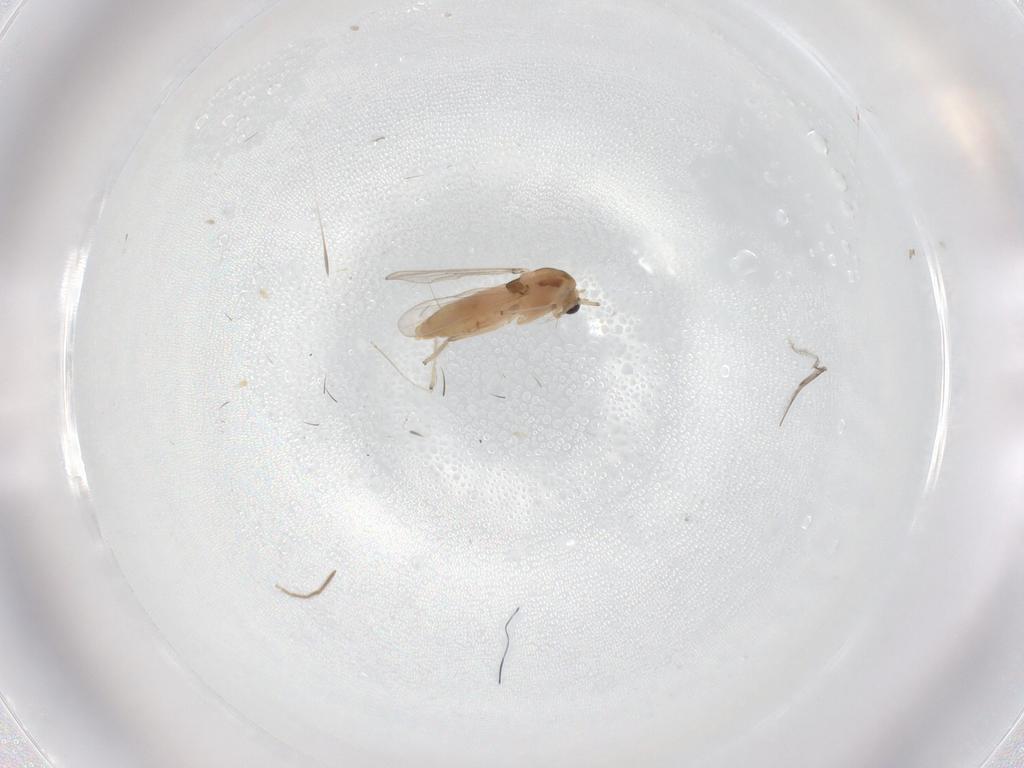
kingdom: Animalia
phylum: Arthropoda
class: Insecta
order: Diptera
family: Chironomidae
